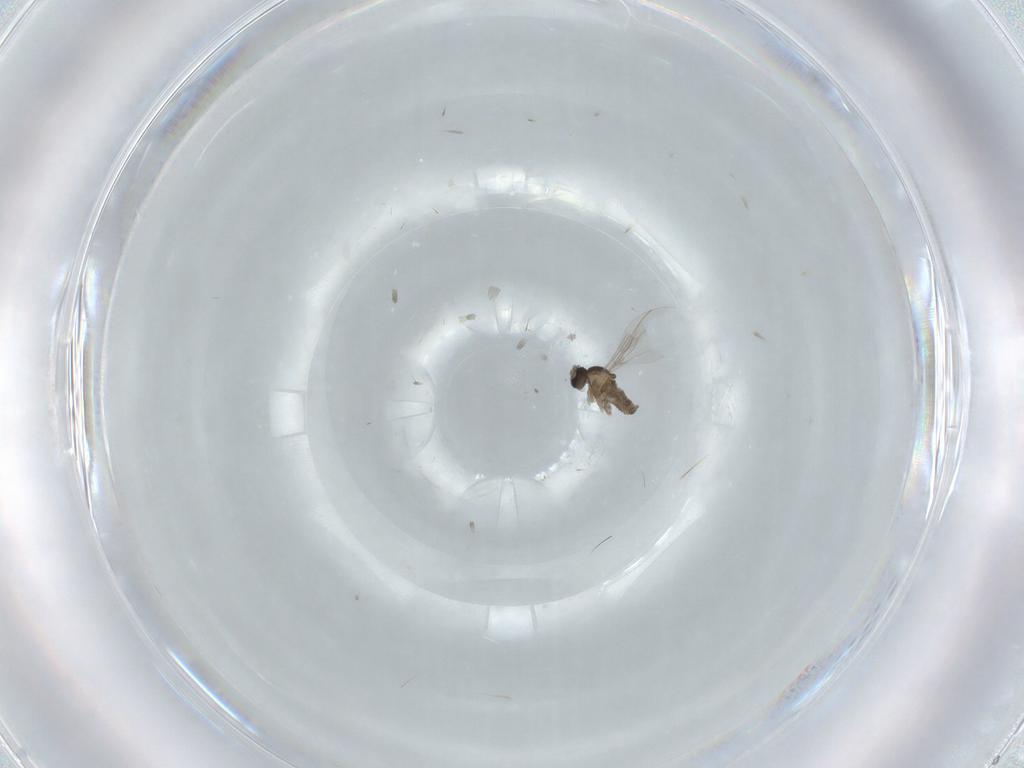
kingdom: Animalia
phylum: Arthropoda
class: Insecta
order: Diptera
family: Cecidomyiidae
